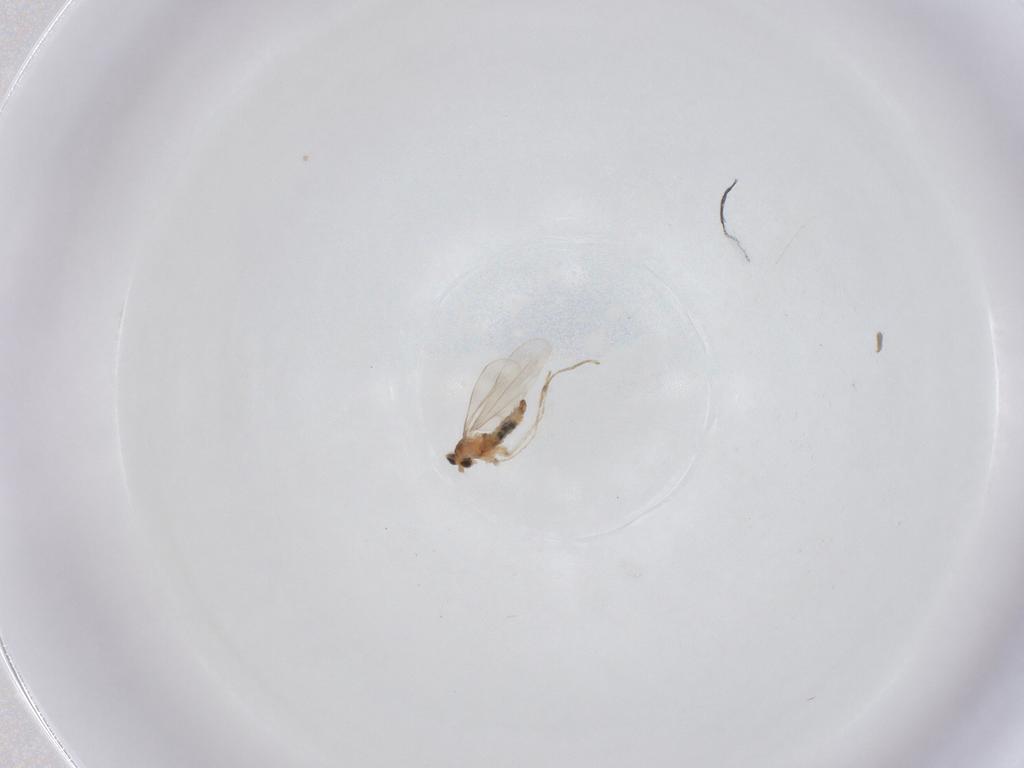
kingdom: Animalia
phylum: Arthropoda
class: Insecta
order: Diptera
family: Cecidomyiidae
